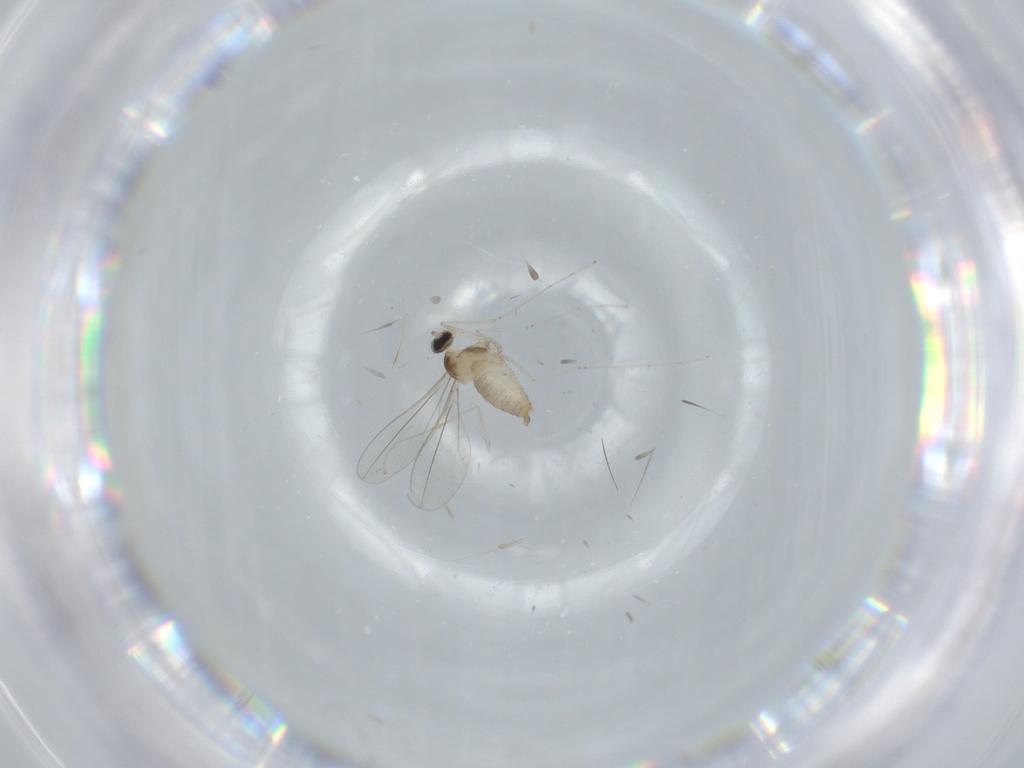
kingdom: Animalia
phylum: Arthropoda
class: Insecta
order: Diptera
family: Cecidomyiidae
